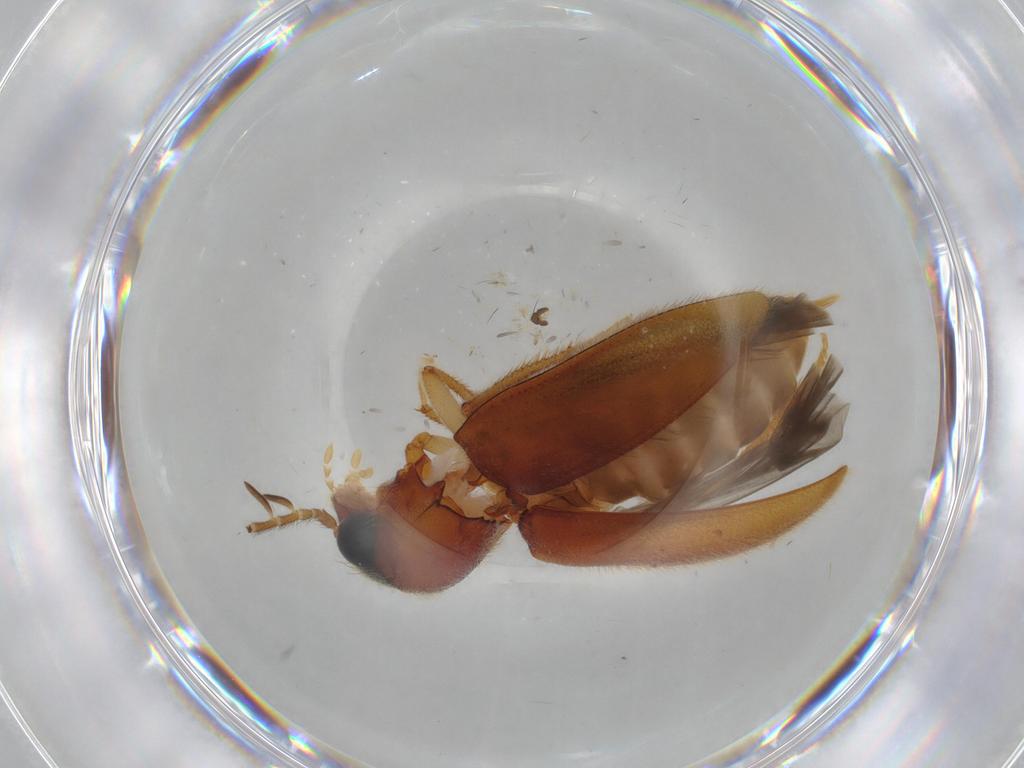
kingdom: Animalia
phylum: Arthropoda
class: Insecta
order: Coleoptera
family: Ptilodactylidae
